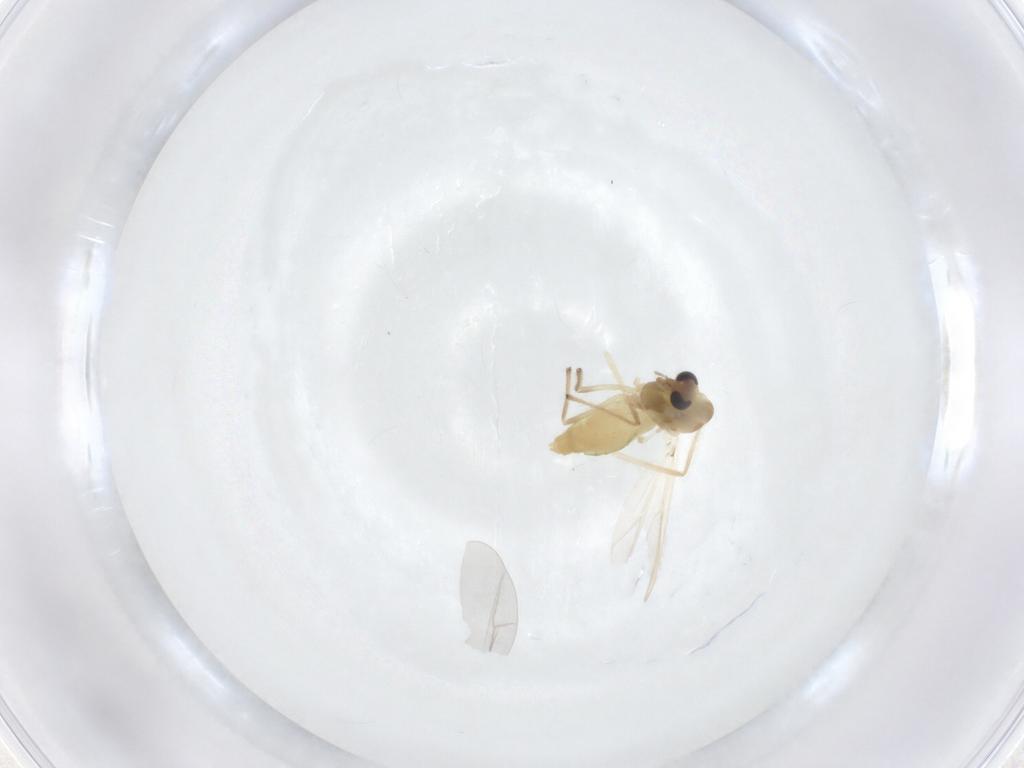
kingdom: Animalia
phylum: Arthropoda
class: Insecta
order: Diptera
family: Chironomidae
